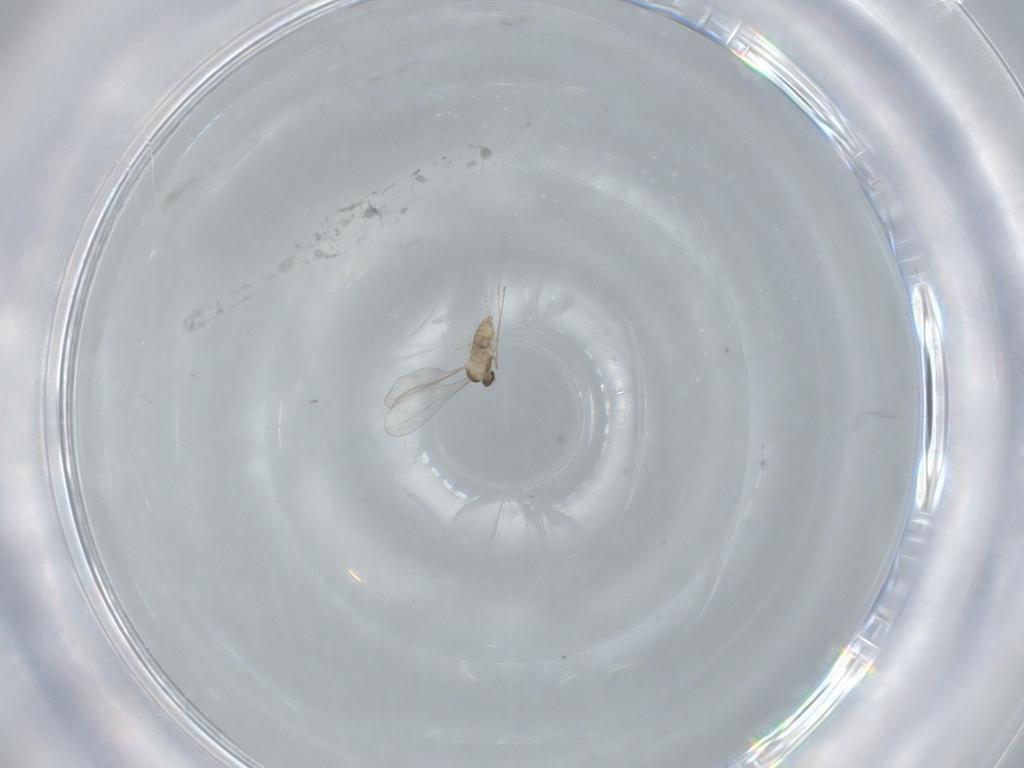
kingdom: Animalia
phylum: Arthropoda
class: Insecta
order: Diptera
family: Cecidomyiidae
